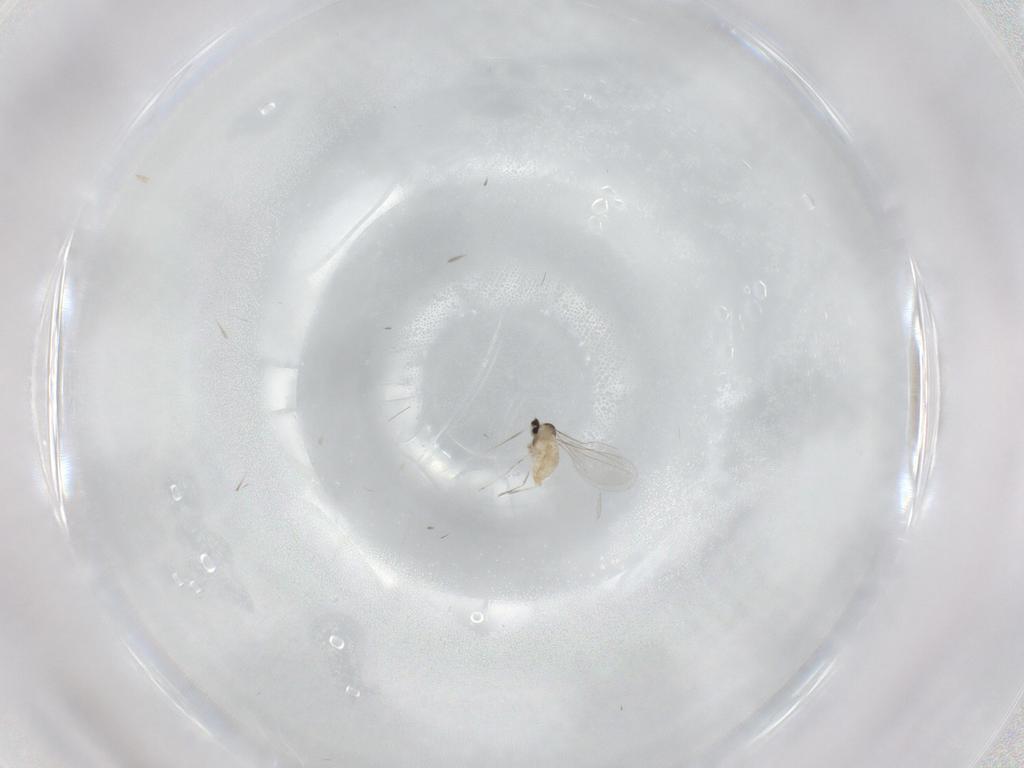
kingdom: Animalia
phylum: Arthropoda
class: Insecta
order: Diptera
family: Cecidomyiidae
